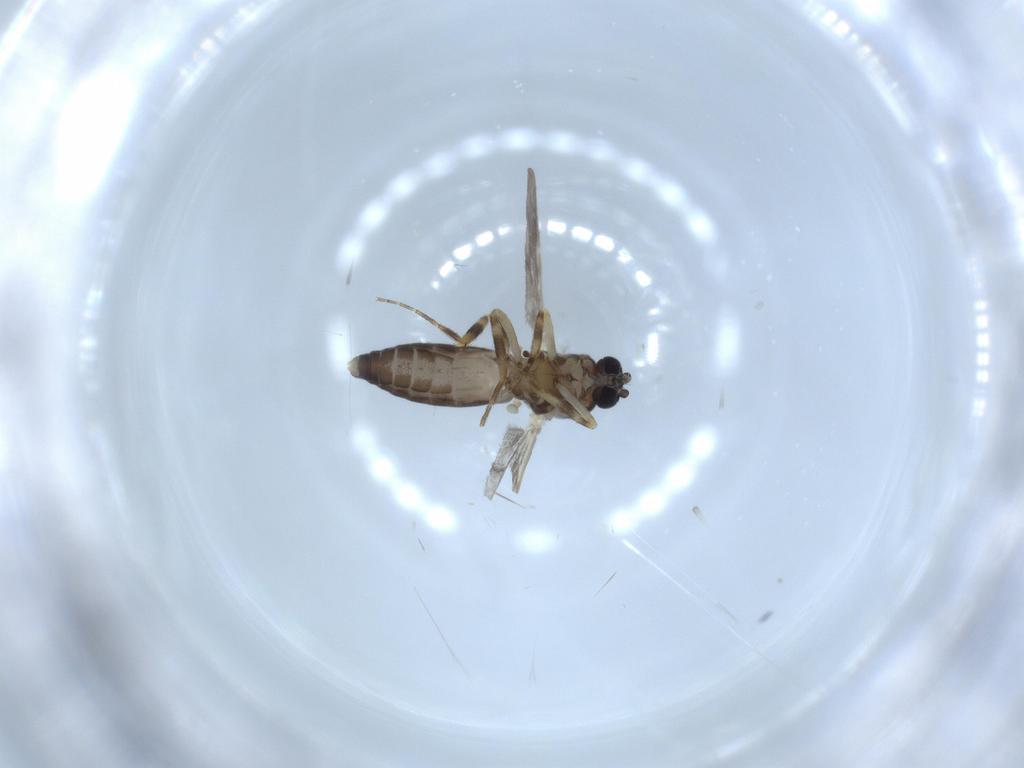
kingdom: Animalia
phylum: Arthropoda
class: Insecta
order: Diptera
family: Ceratopogonidae
